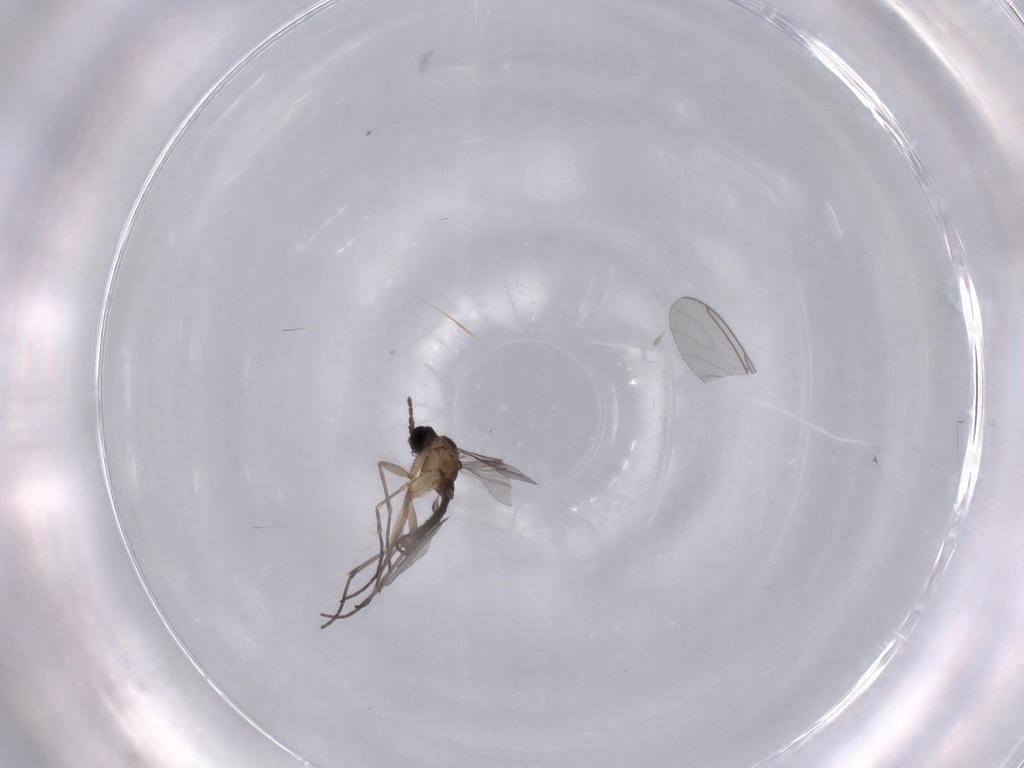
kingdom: Animalia
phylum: Arthropoda
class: Insecta
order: Diptera
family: Sciaridae
